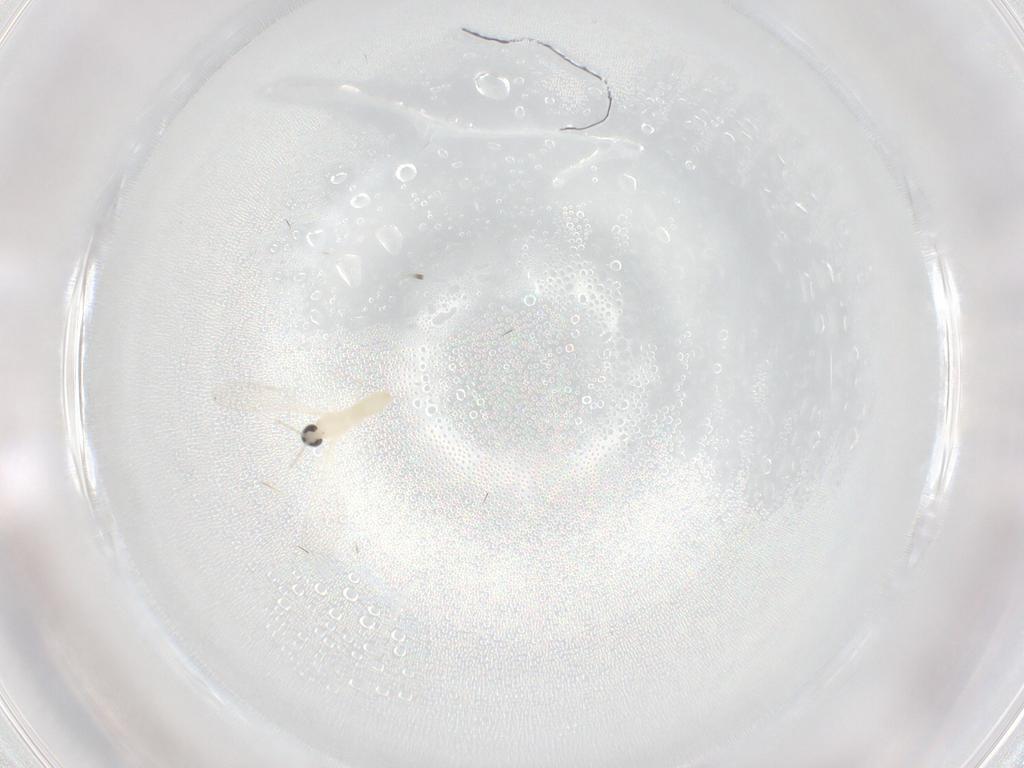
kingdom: Animalia
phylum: Arthropoda
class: Insecta
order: Diptera
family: Cecidomyiidae
